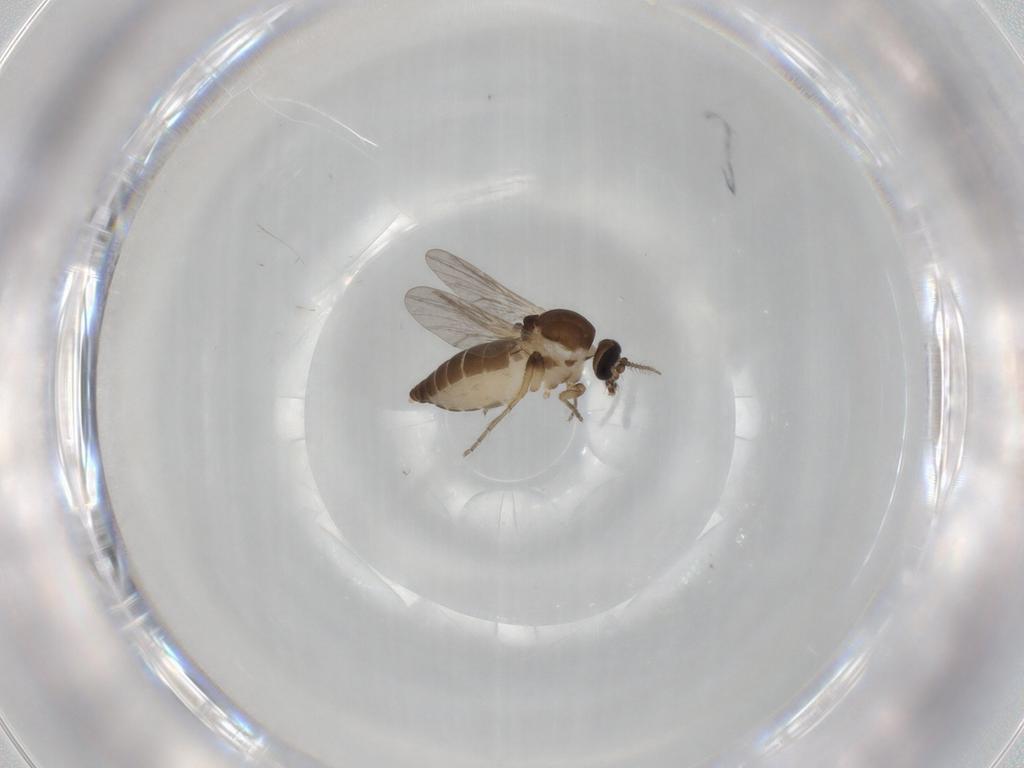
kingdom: Animalia
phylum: Arthropoda
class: Insecta
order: Diptera
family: Ceratopogonidae
